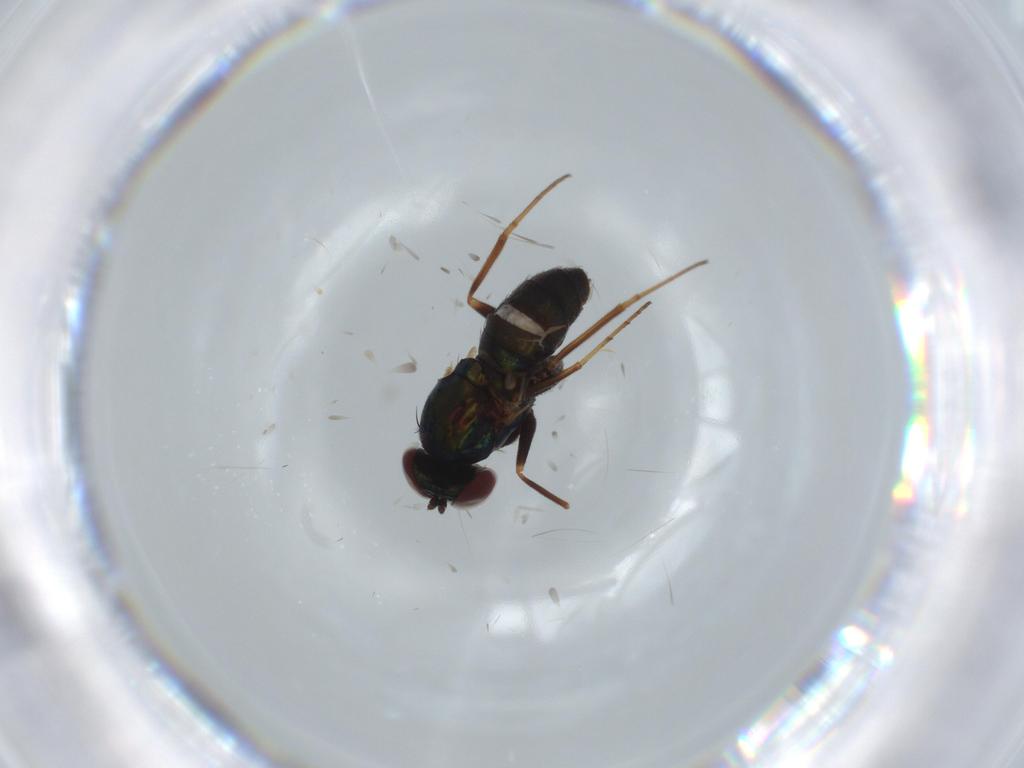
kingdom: Animalia
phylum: Arthropoda
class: Insecta
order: Diptera
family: Dolichopodidae
